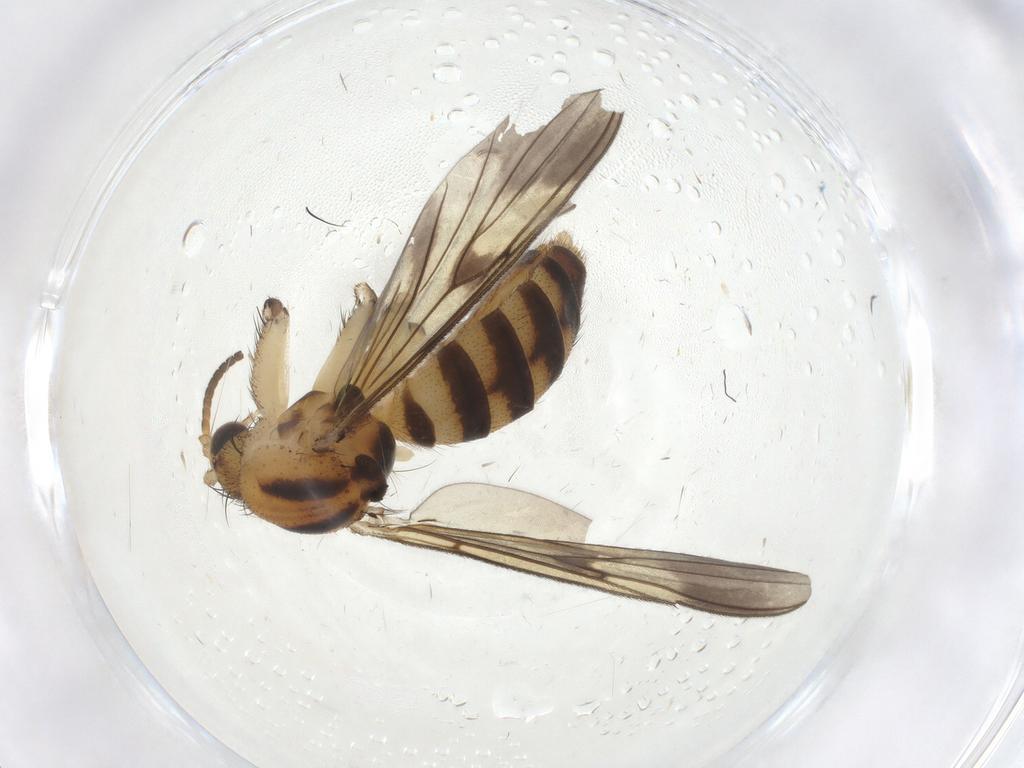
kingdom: Animalia
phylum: Arthropoda
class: Insecta
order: Diptera
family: Mycetophilidae
